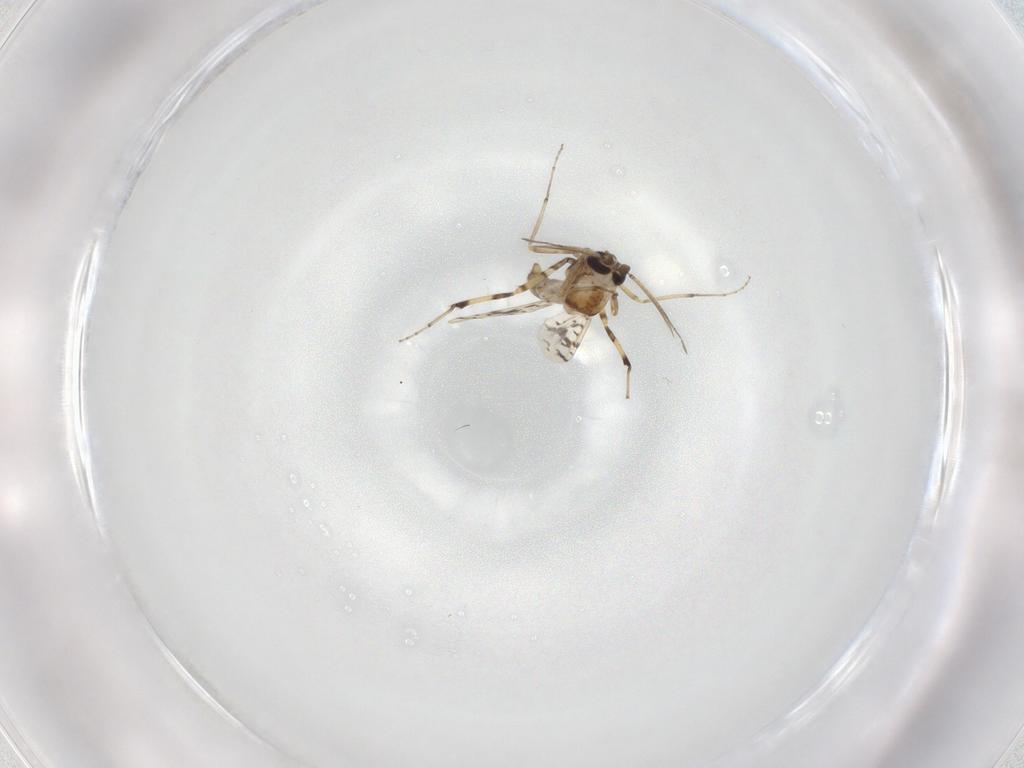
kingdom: Animalia
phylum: Arthropoda
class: Insecta
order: Diptera
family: Ceratopogonidae
